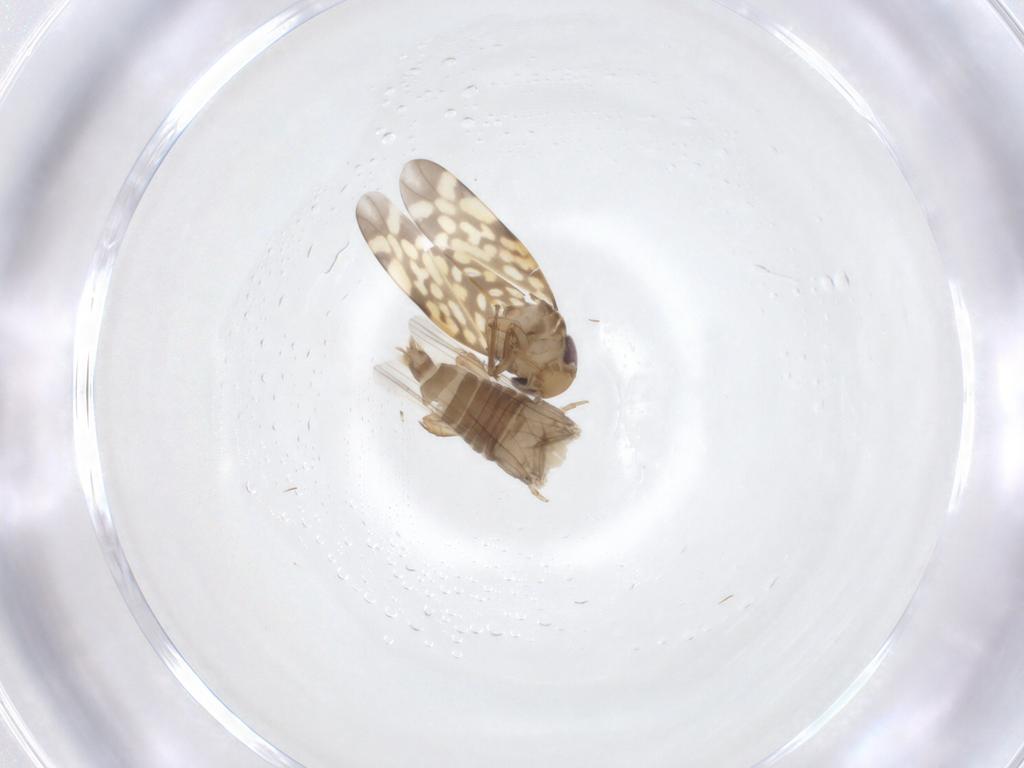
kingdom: Animalia
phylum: Arthropoda
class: Insecta
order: Hemiptera
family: Cicadellidae
